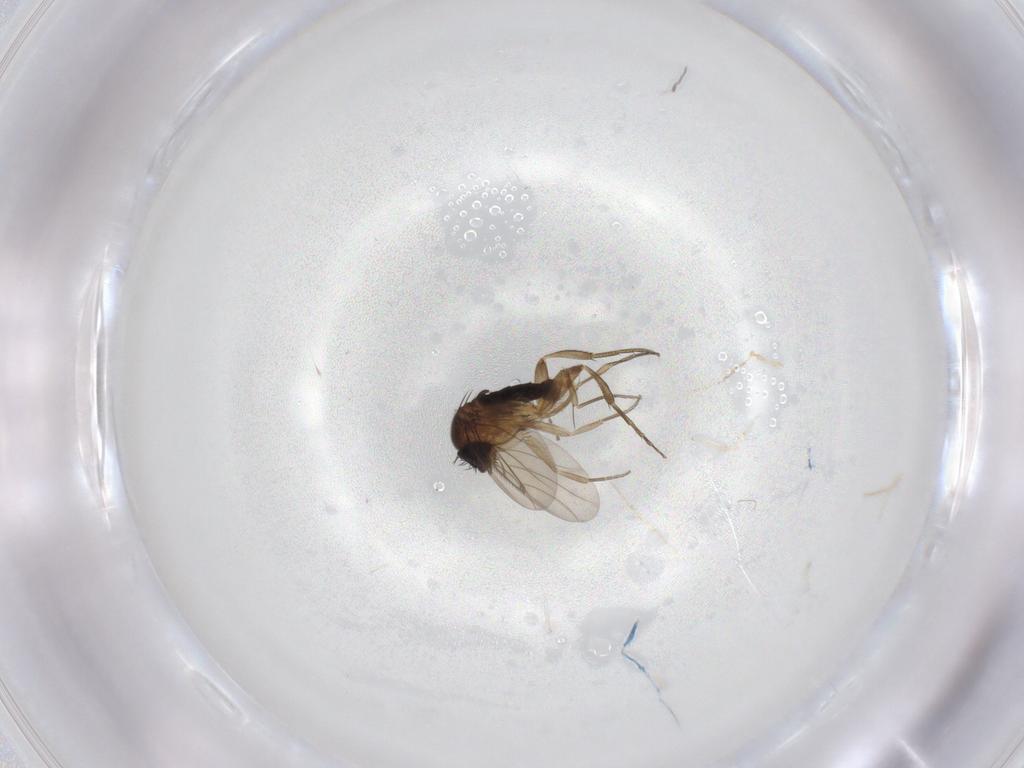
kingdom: Animalia
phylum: Arthropoda
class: Insecta
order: Diptera
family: Phoridae
